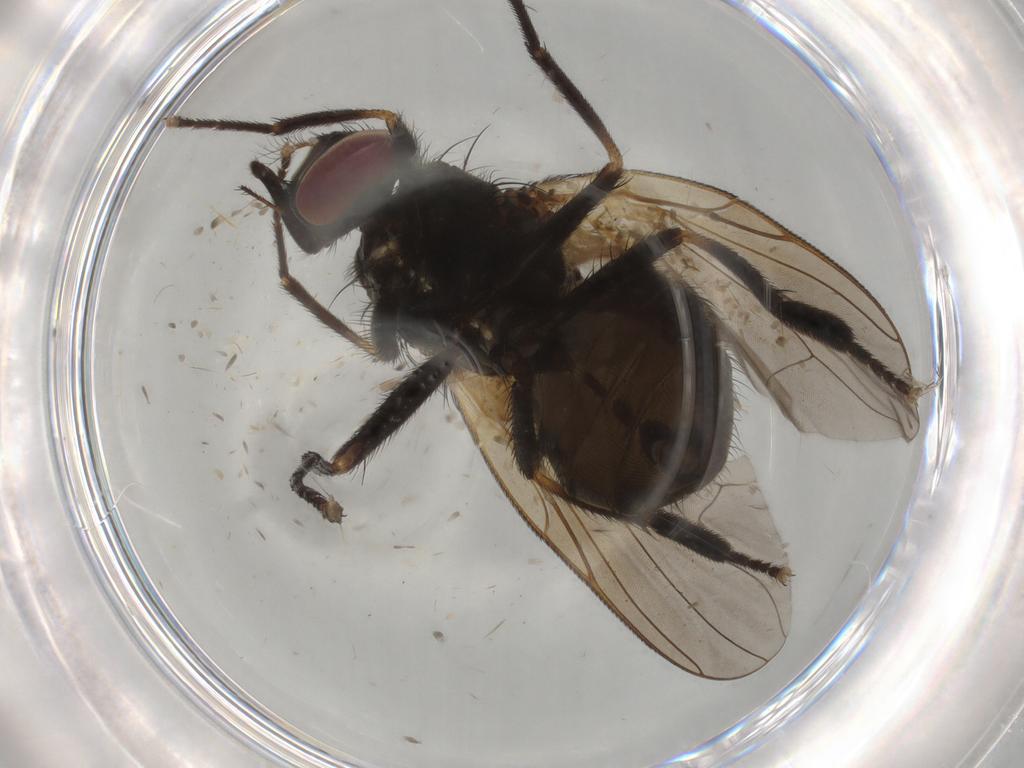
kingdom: Animalia
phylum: Arthropoda
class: Insecta
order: Diptera
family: Muscidae
